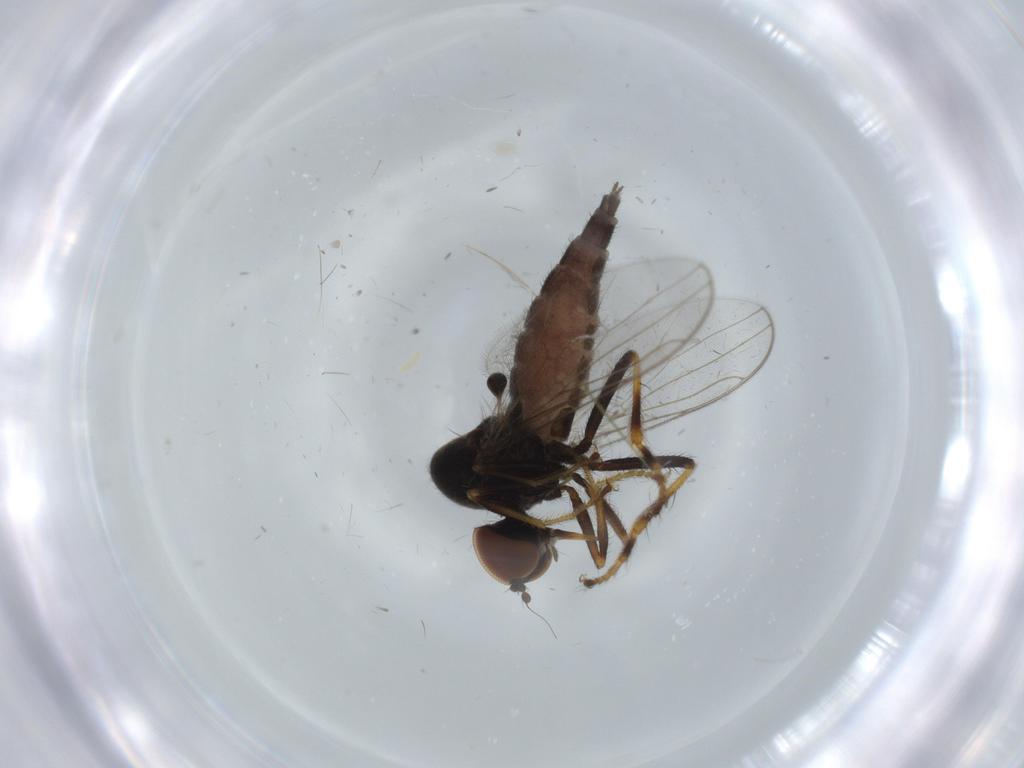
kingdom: Animalia
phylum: Arthropoda
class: Insecta
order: Diptera
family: Hybotidae
